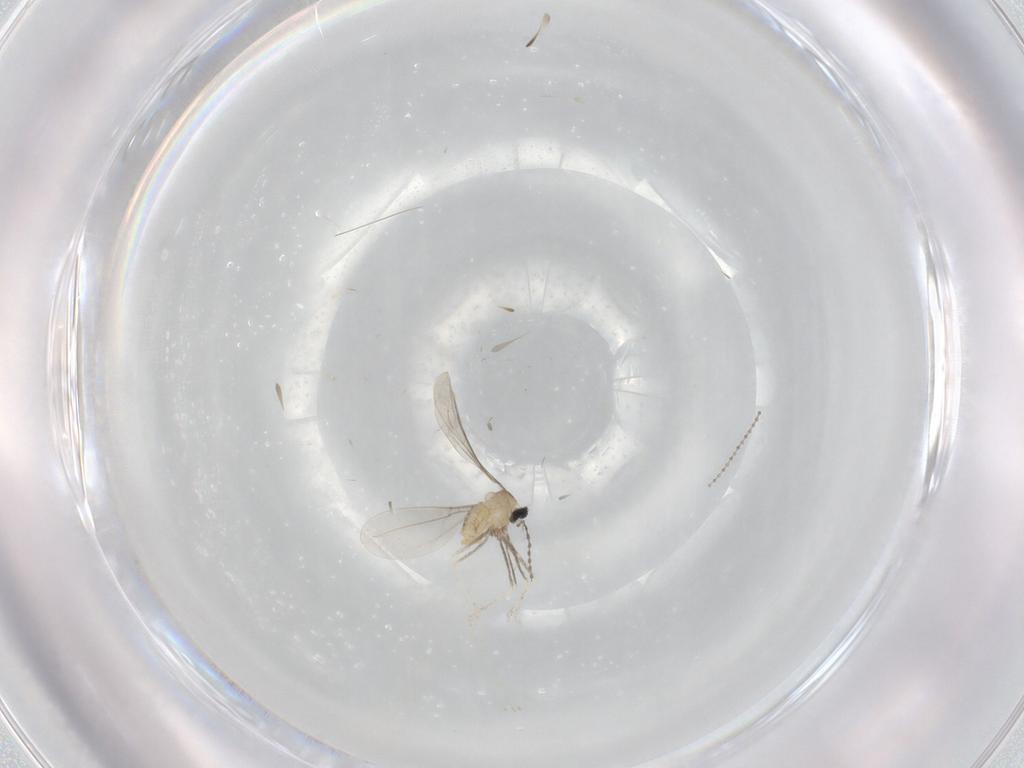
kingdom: Animalia
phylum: Arthropoda
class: Insecta
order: Diptera
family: Cecidomyiidae
